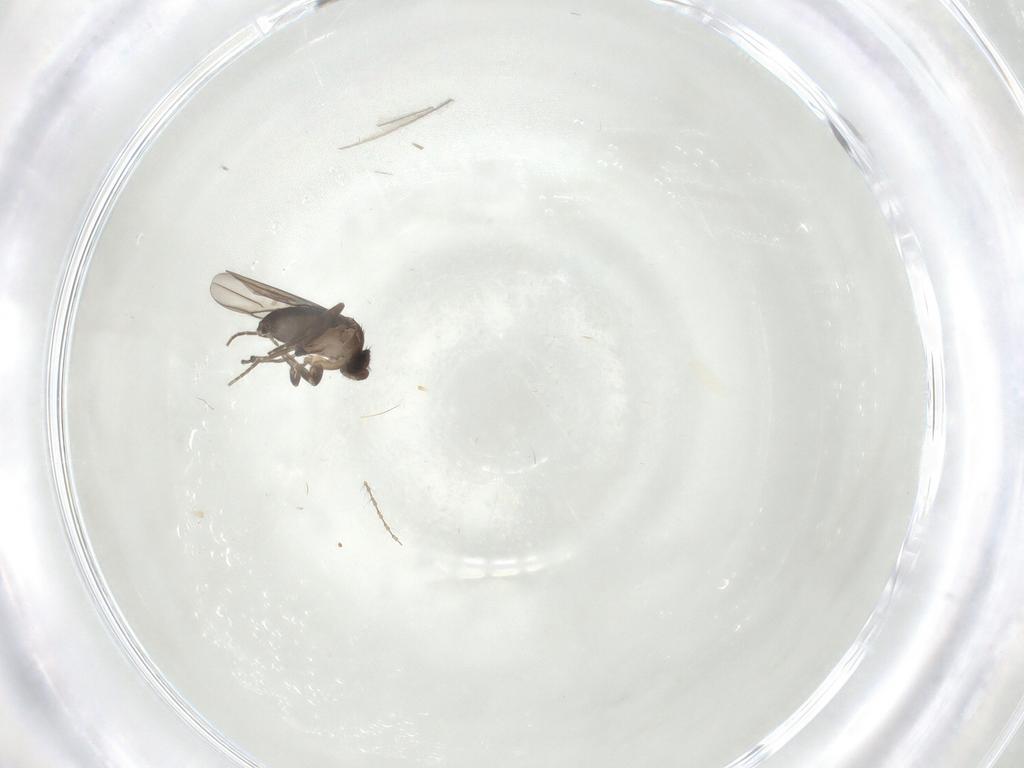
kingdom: Animalia
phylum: Arthropoda
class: Insecta
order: Diptera
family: Phoridae
